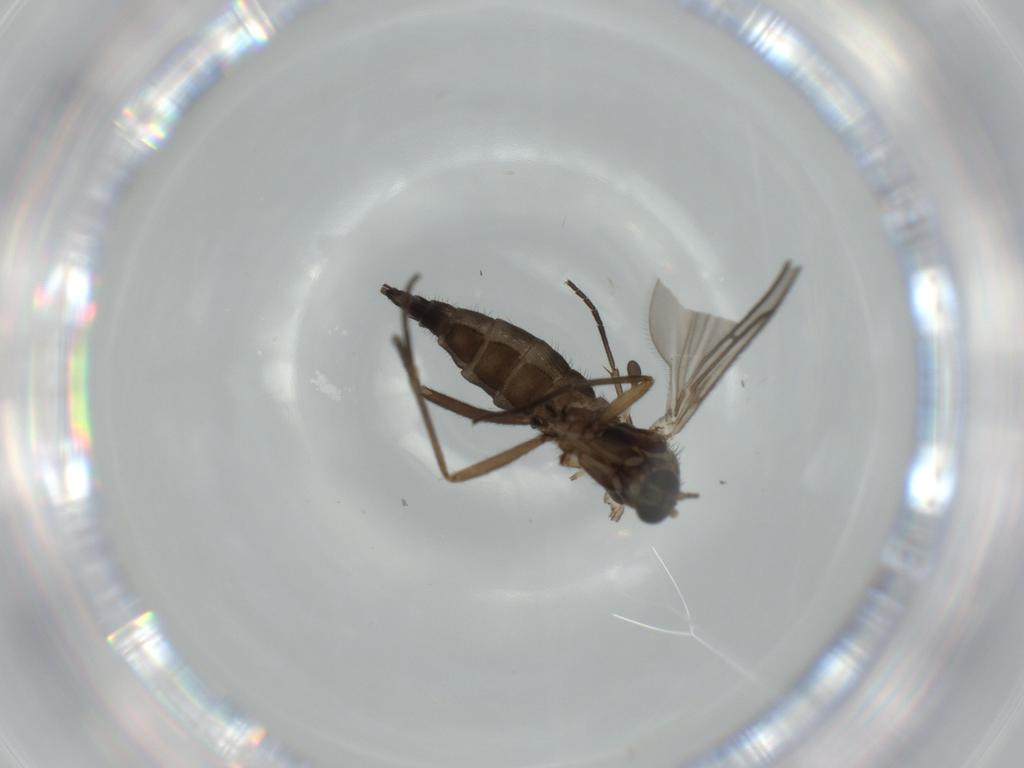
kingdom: Animalia
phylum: Arthropoda
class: Insecta
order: Diptera
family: Sciaridae
